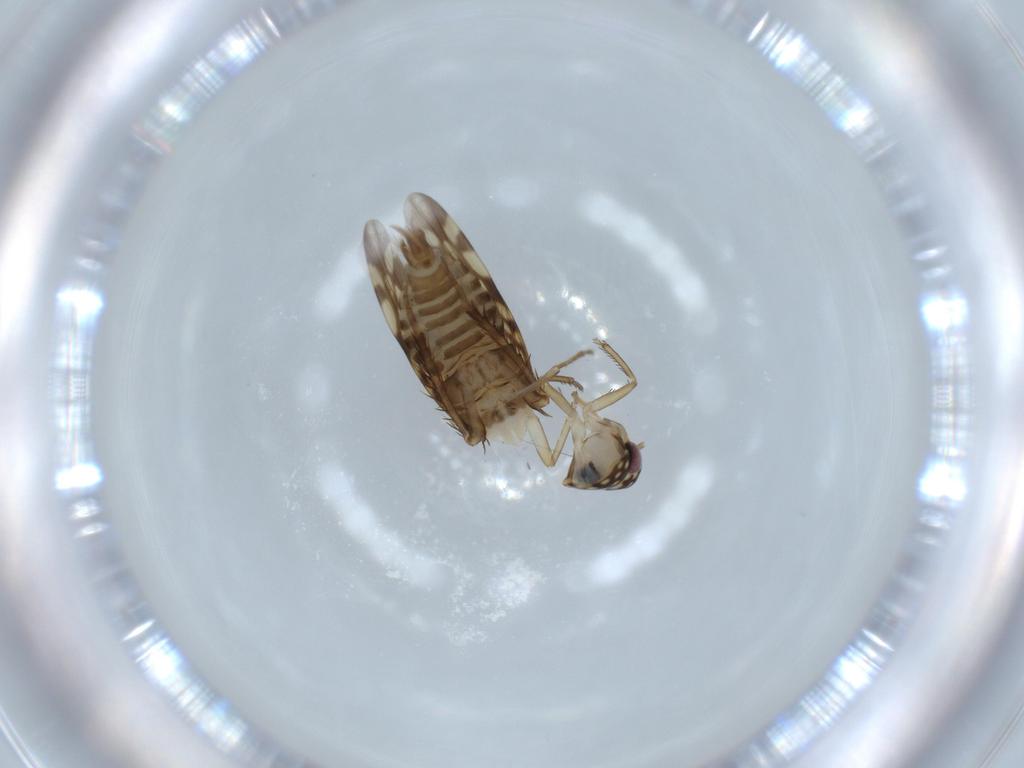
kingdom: Animalia
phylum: Arthropoda
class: Insecta
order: Hemiptera
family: Cicadellidae
